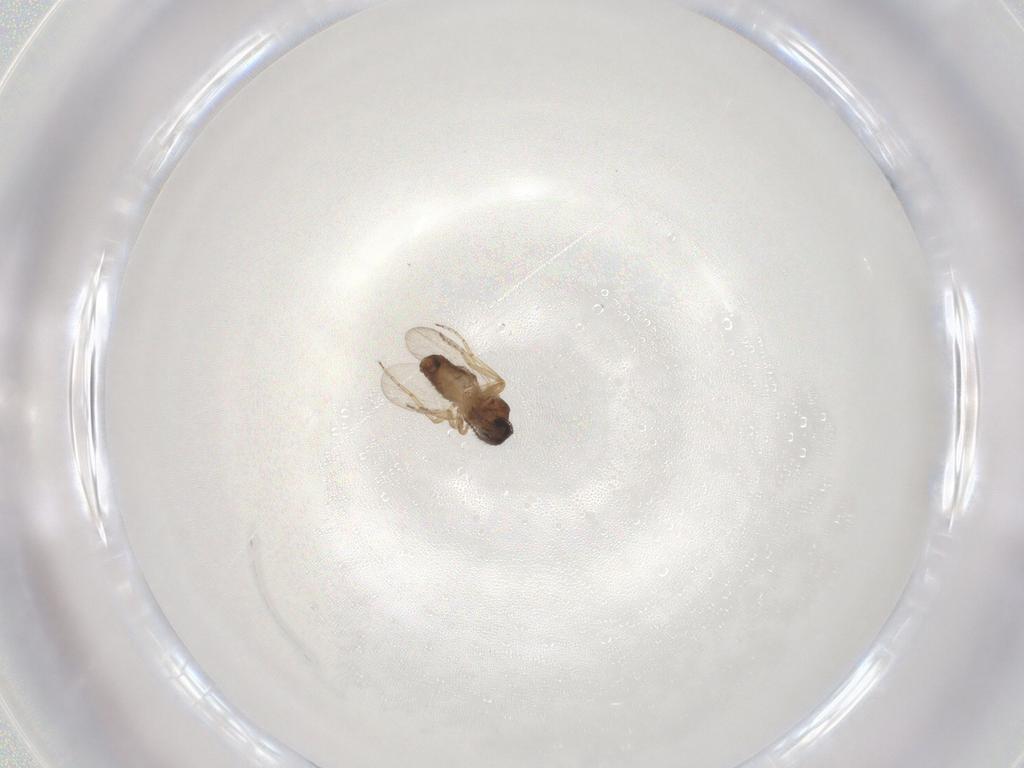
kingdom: Animalia
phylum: Arthropoda
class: Insecta
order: Diptera
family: Ceratopogonidae
